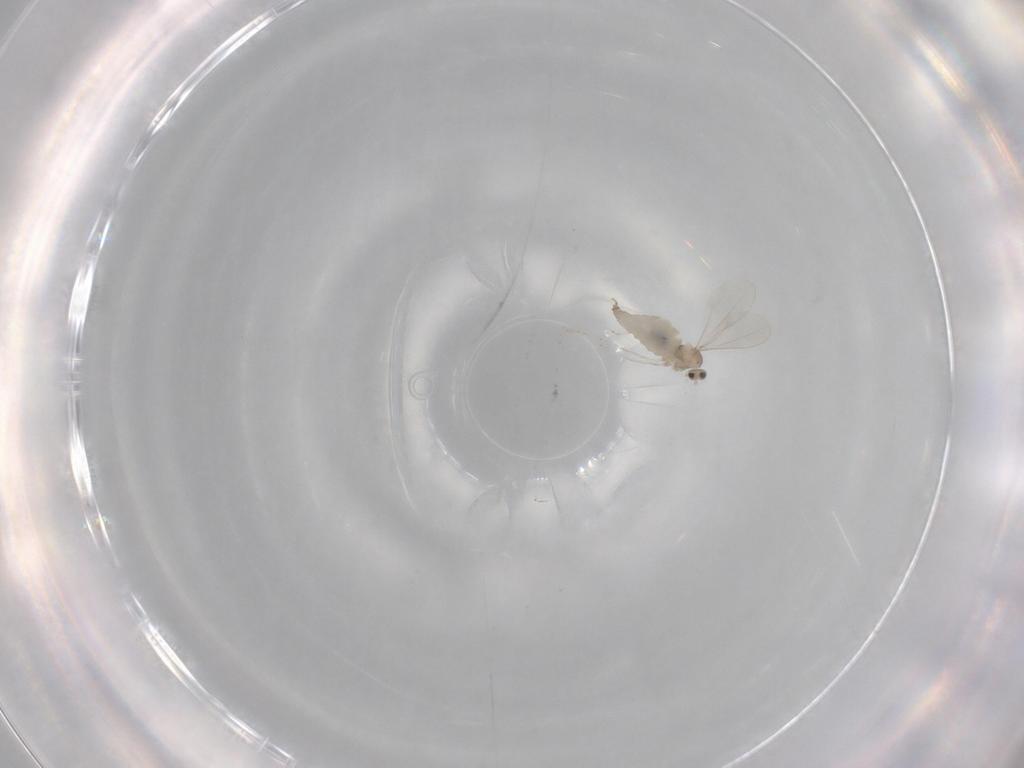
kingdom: Animalia
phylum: Arthropoda
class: Insecta
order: Diptera
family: Cecidomyiidae
